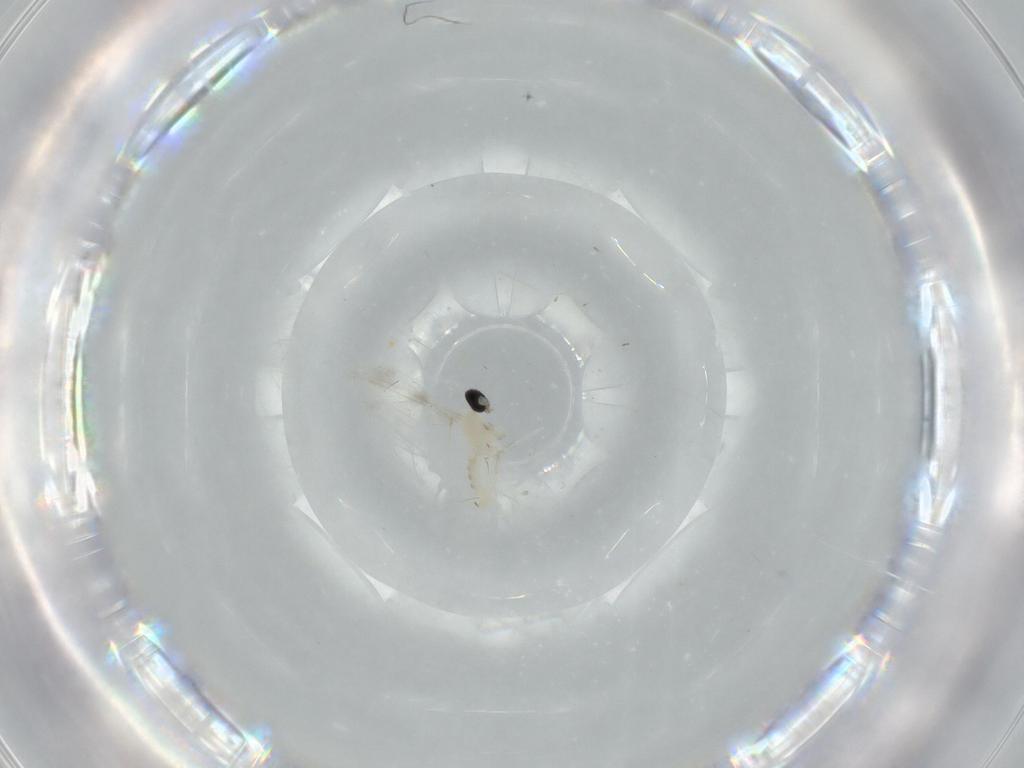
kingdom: Animalia
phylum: Arthropoda
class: Insecta
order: Diptera
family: Cecidomyiidae
